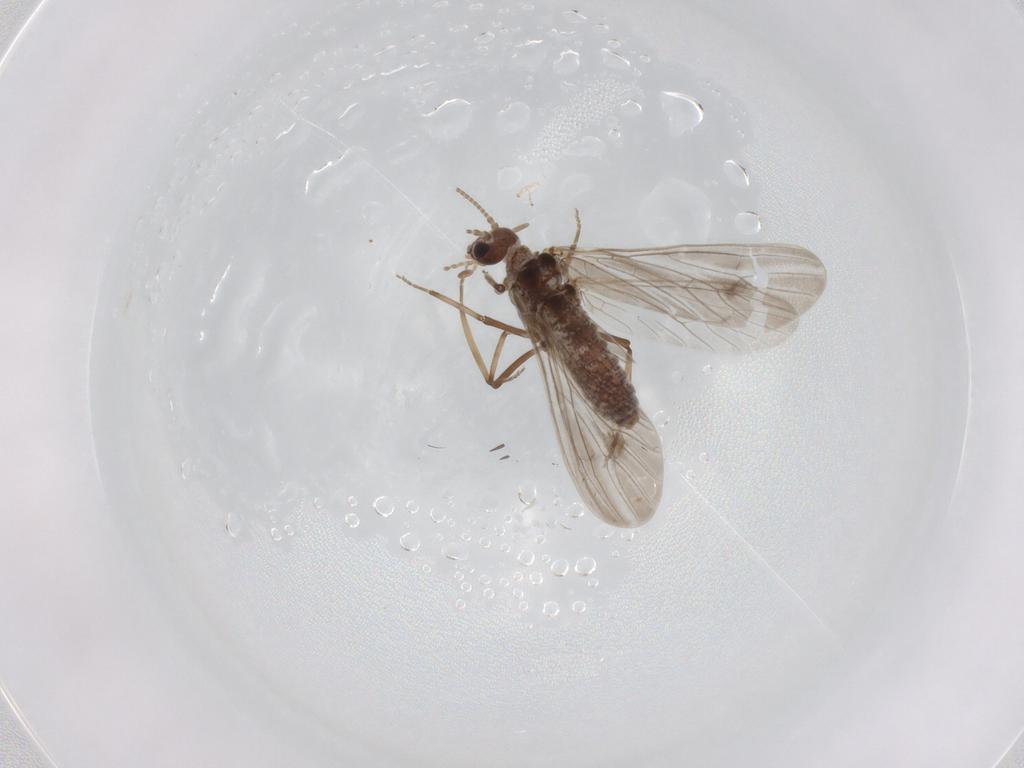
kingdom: Animalia
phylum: Arthropoda
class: Insecta
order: Neuroptera
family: Coniopterygidae
